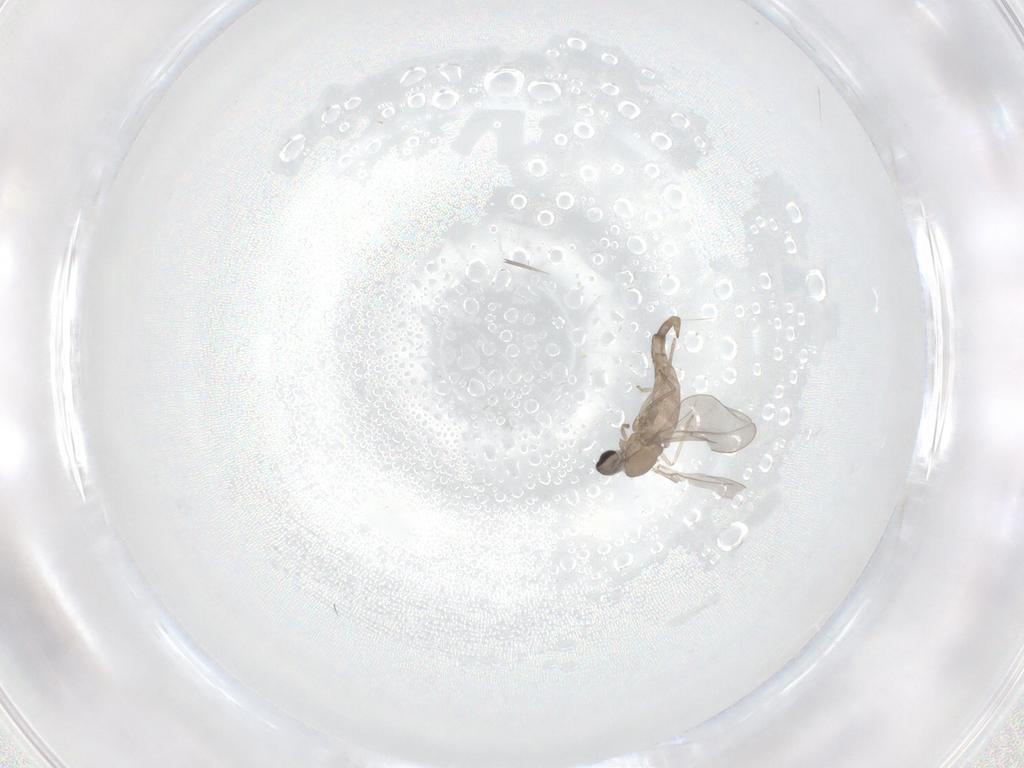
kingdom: Animalia
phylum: Arthropoda
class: Insecta
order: Diptera
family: Cecidomyiidae
